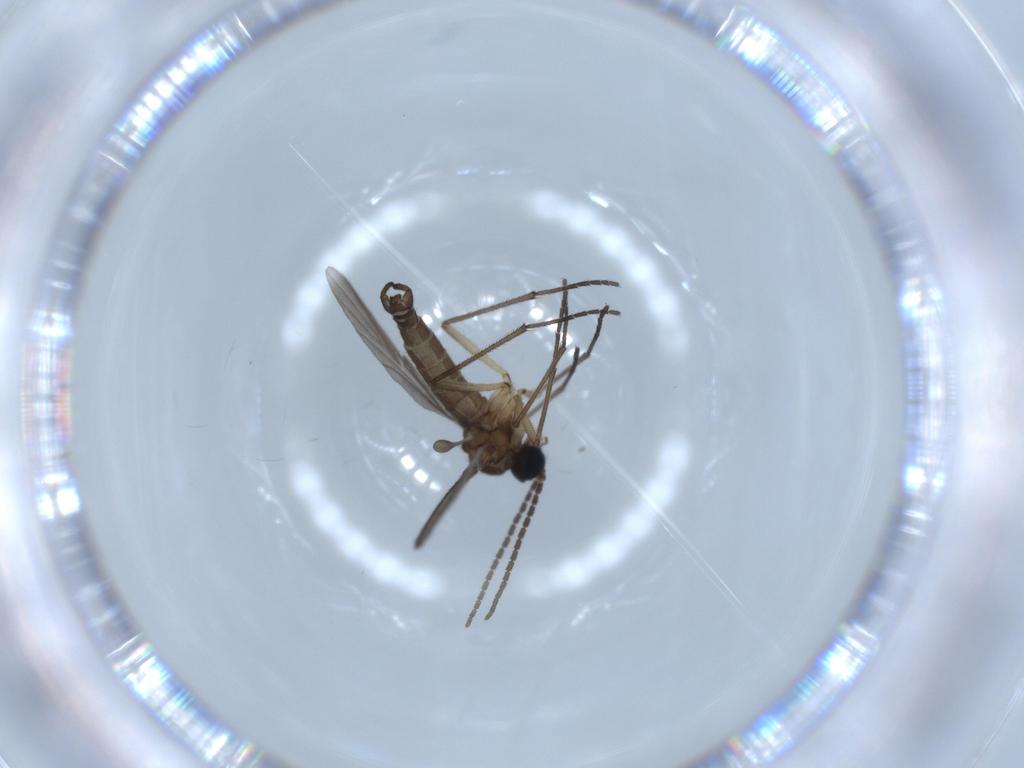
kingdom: Animalia
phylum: Arthropoda
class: Insecta
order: Diptera
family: Sciaridae
